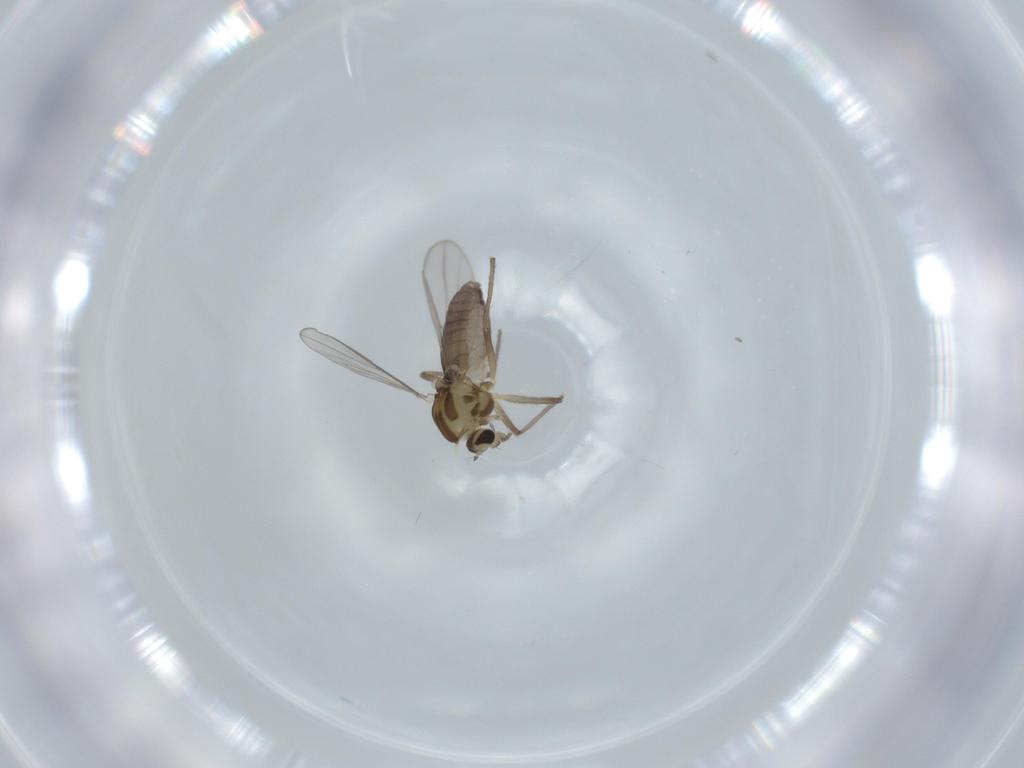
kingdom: Animalia
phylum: Arthropoda
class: Insecta
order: Diptera
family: Chironomidae
